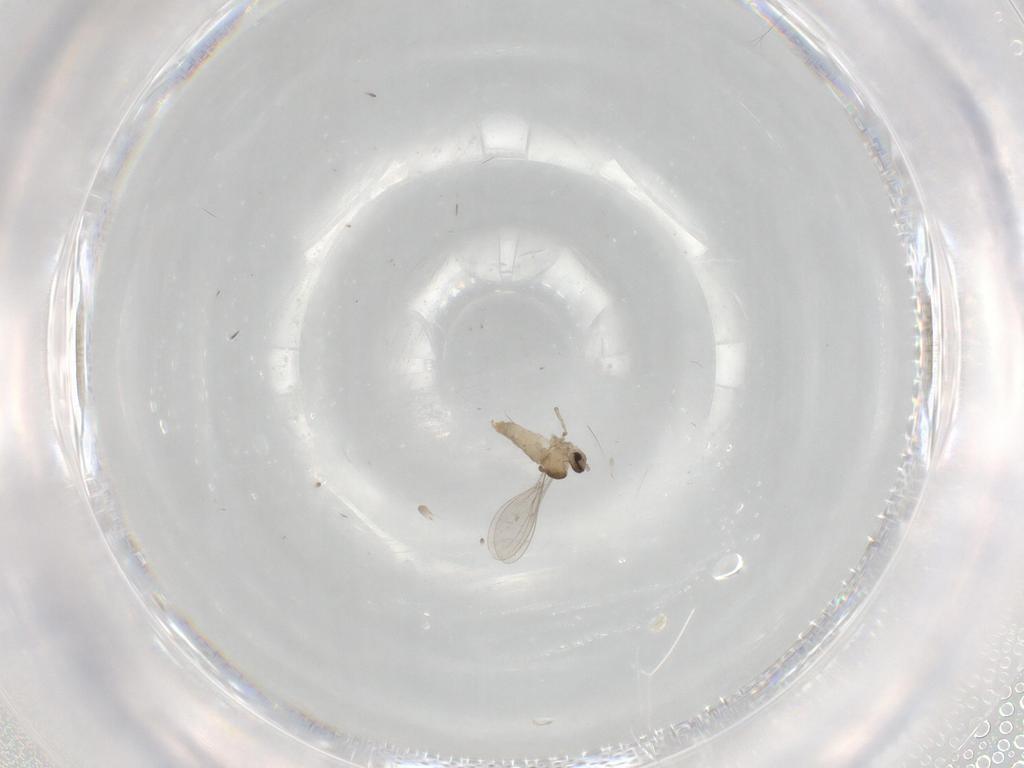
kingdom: Animalia
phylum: Arthropoda
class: Insecta
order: Diptera
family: Cecidomyiidae
